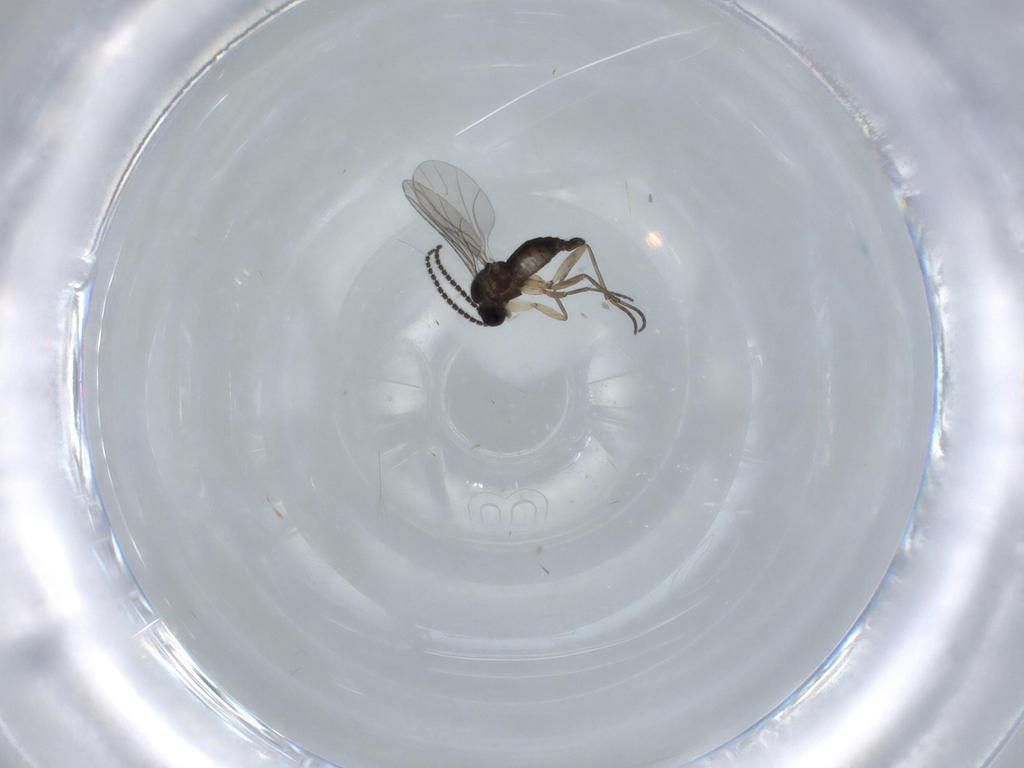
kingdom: Animalia
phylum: Arthropoda
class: Insecta
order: Diptera
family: Sciaridae
